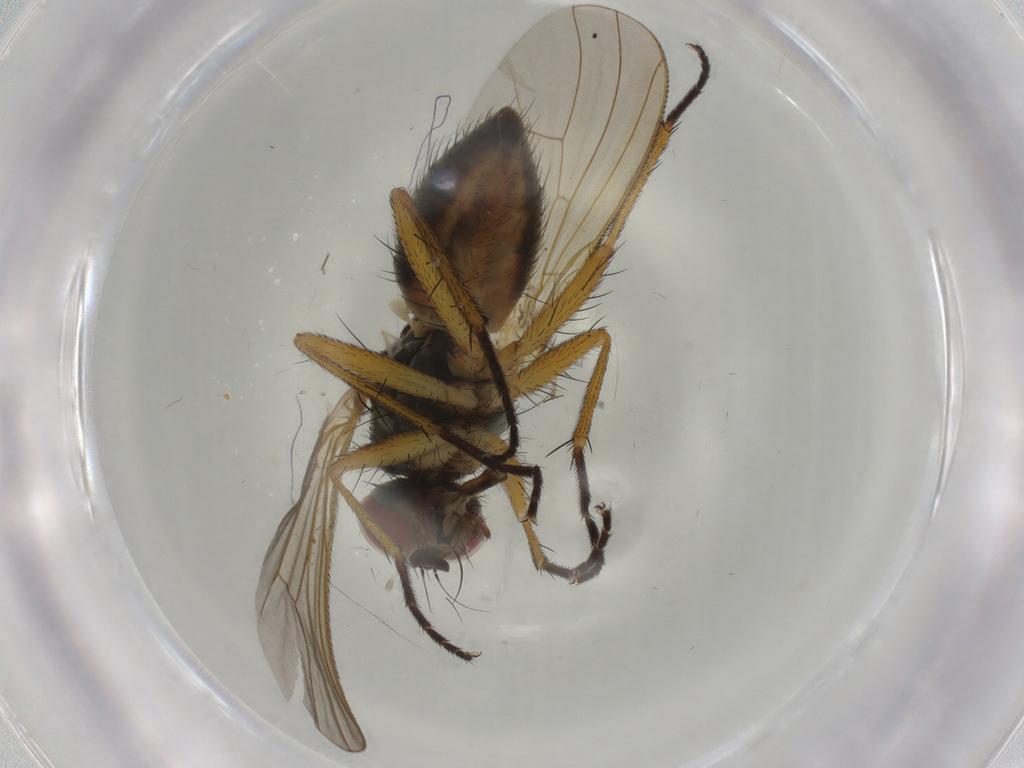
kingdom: Animalia
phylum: Arthropoda
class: Insecta
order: Diptera
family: Muscidae
